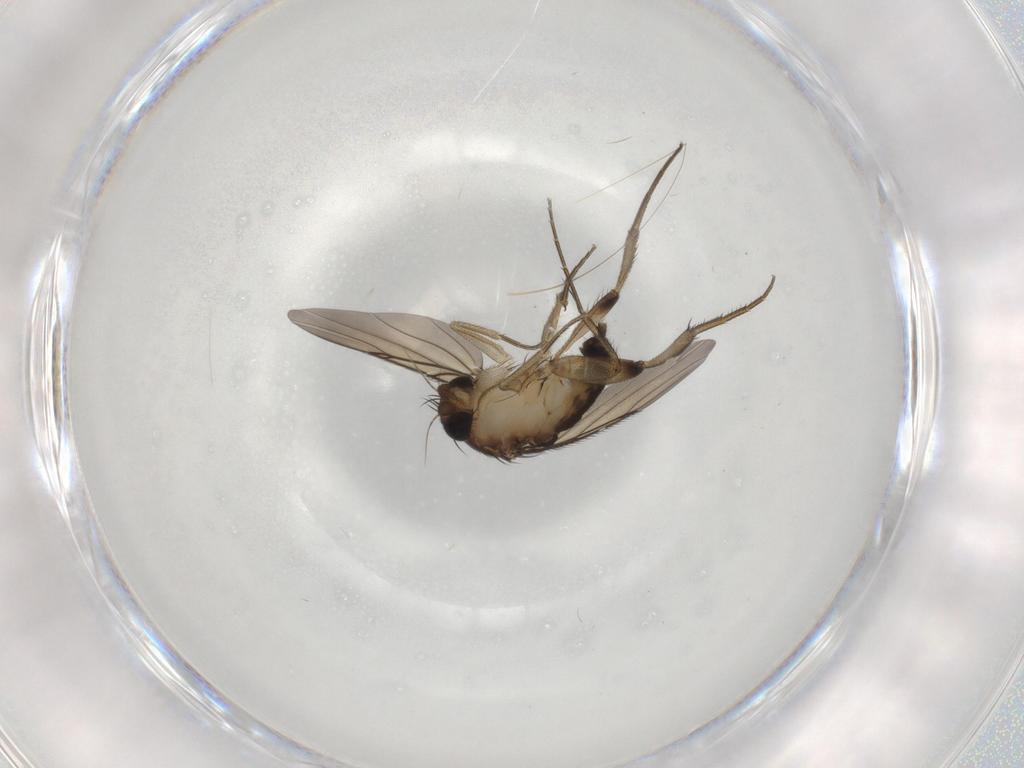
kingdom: Animalia
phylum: Arthropoda
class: Insecta
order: Diptera
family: Phoridae
